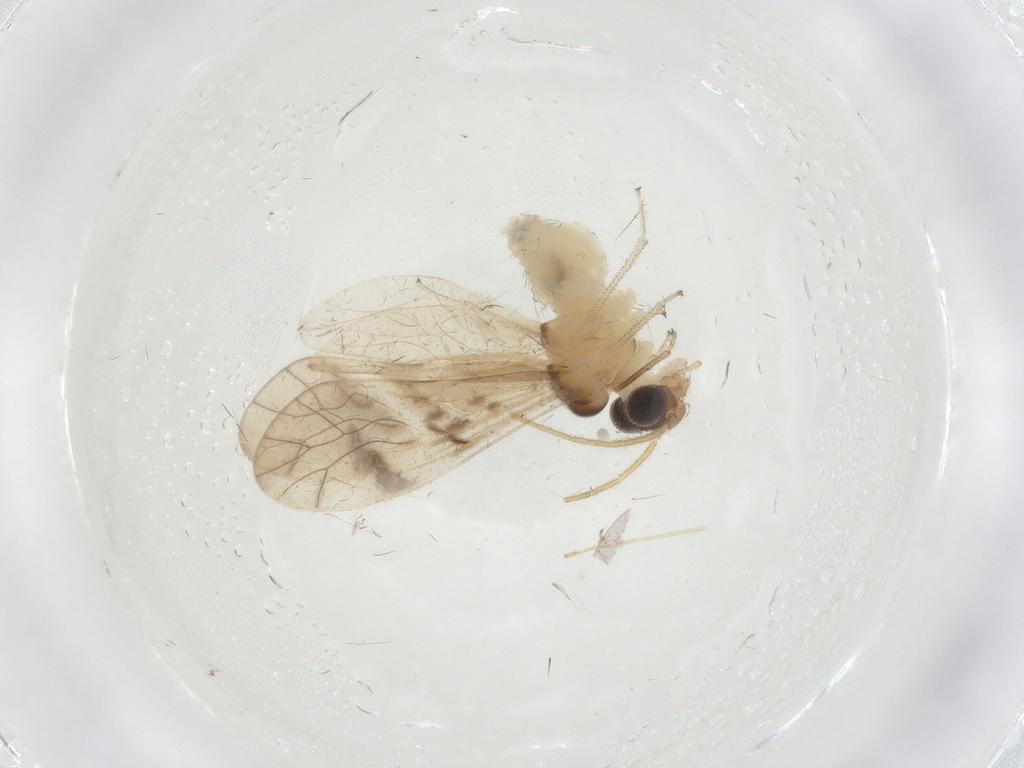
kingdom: Animalia
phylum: Arthropoda
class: Insecta
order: Psocodea
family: Caeciliusidae
